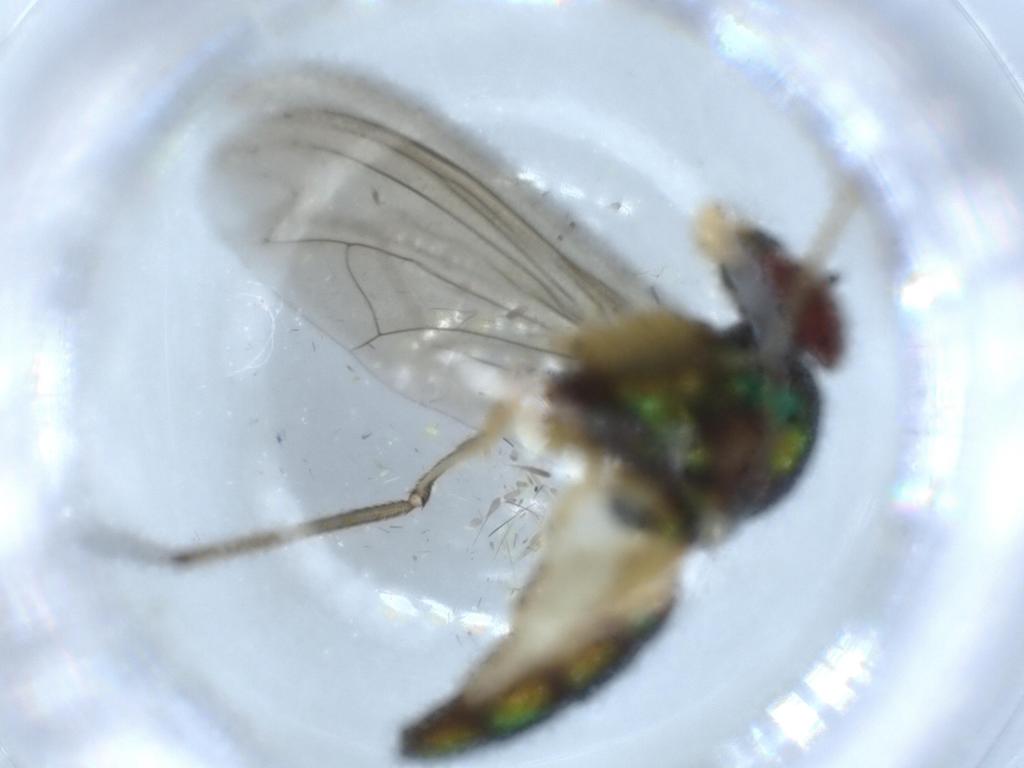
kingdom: Animalia
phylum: Arthropoda
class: Insecta
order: Diptera
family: Dolichopodidae
